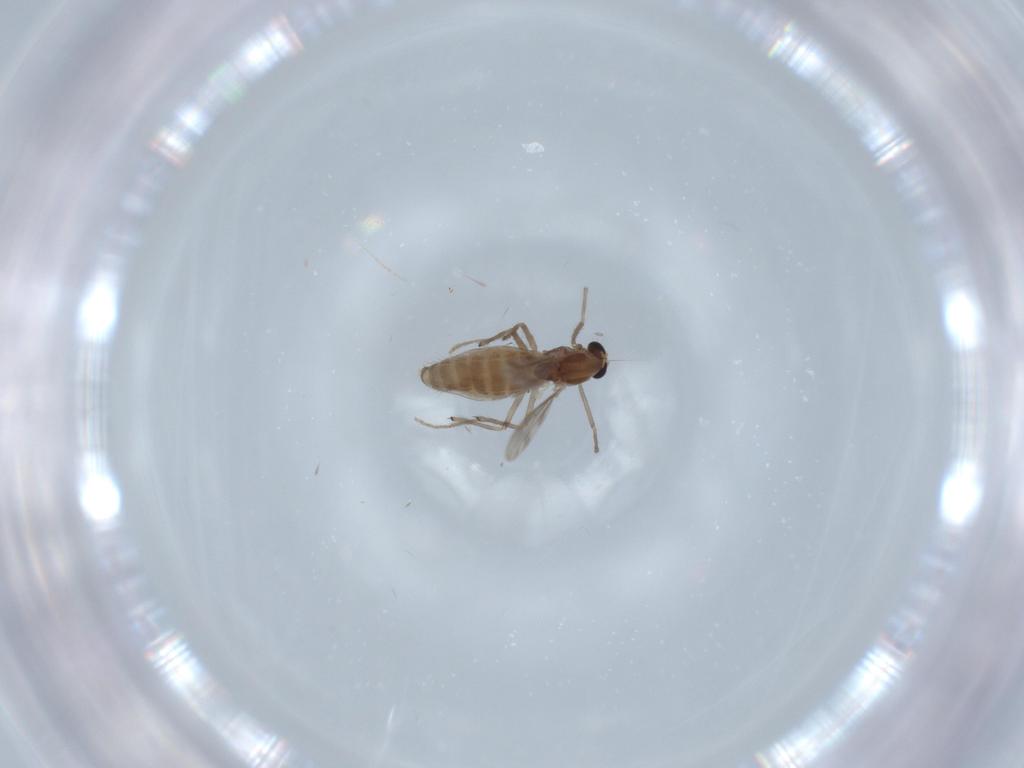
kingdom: Animalia
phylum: Arthropoda
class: Insecta
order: Diptera
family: Chironomidae
